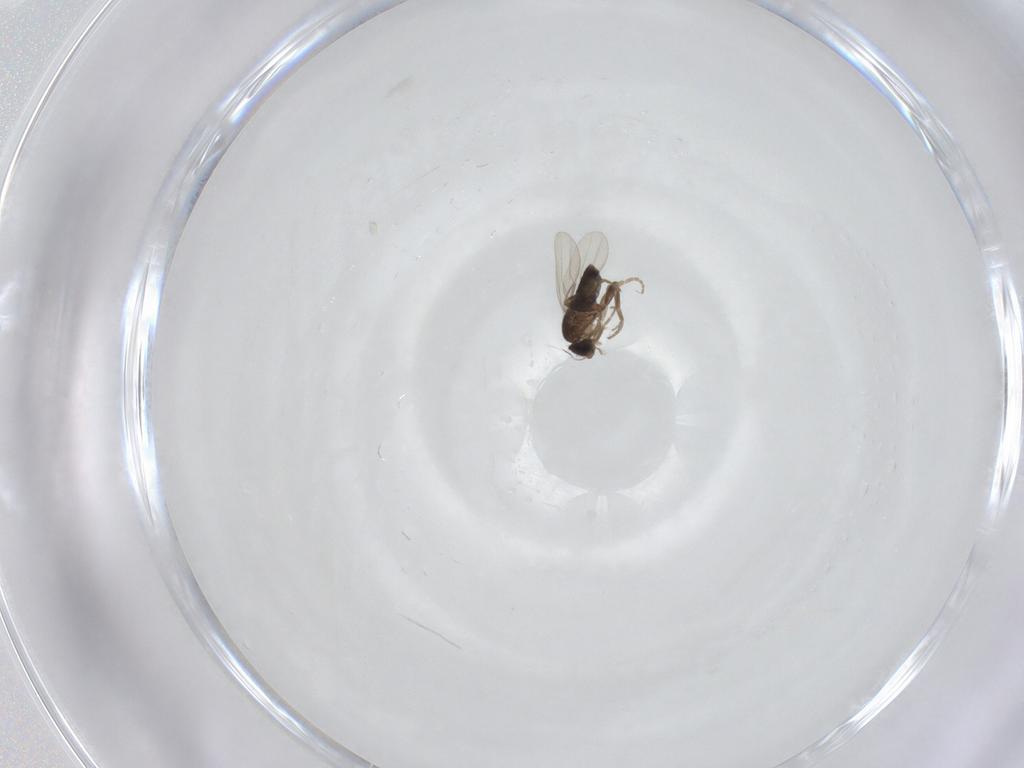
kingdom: Animalia
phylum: Arthropoda
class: Insecta
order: Diptera
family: Phoridae
